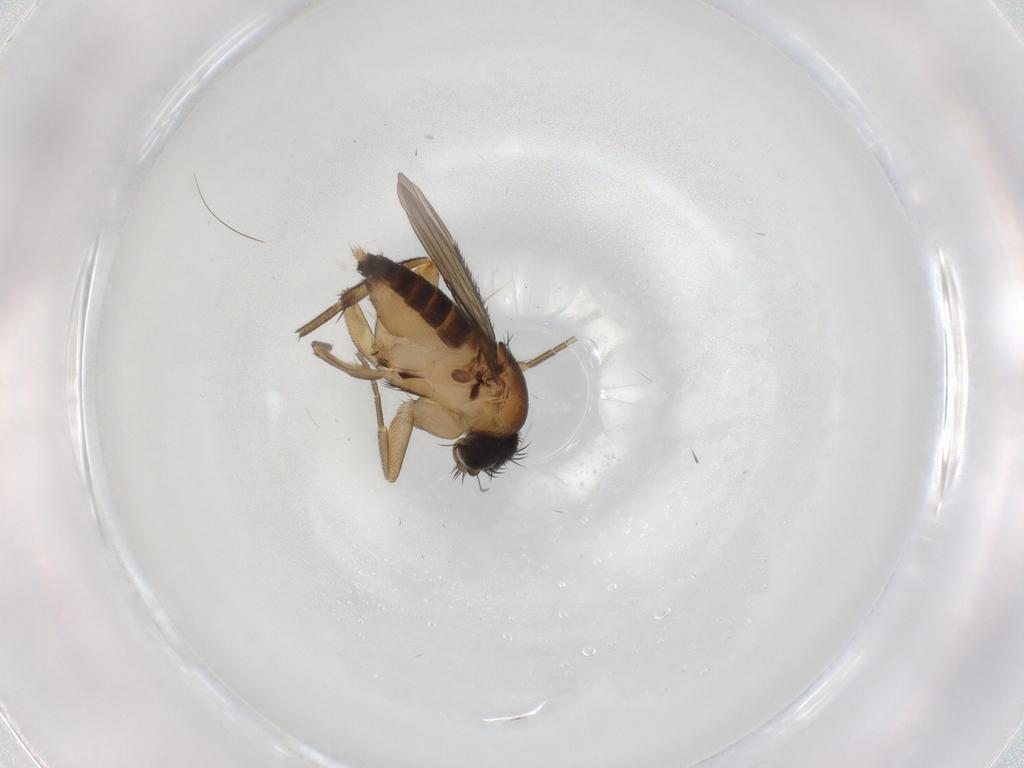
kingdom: Animalia
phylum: Arthropoda
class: Insecta
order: Diptera
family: Phoridae
